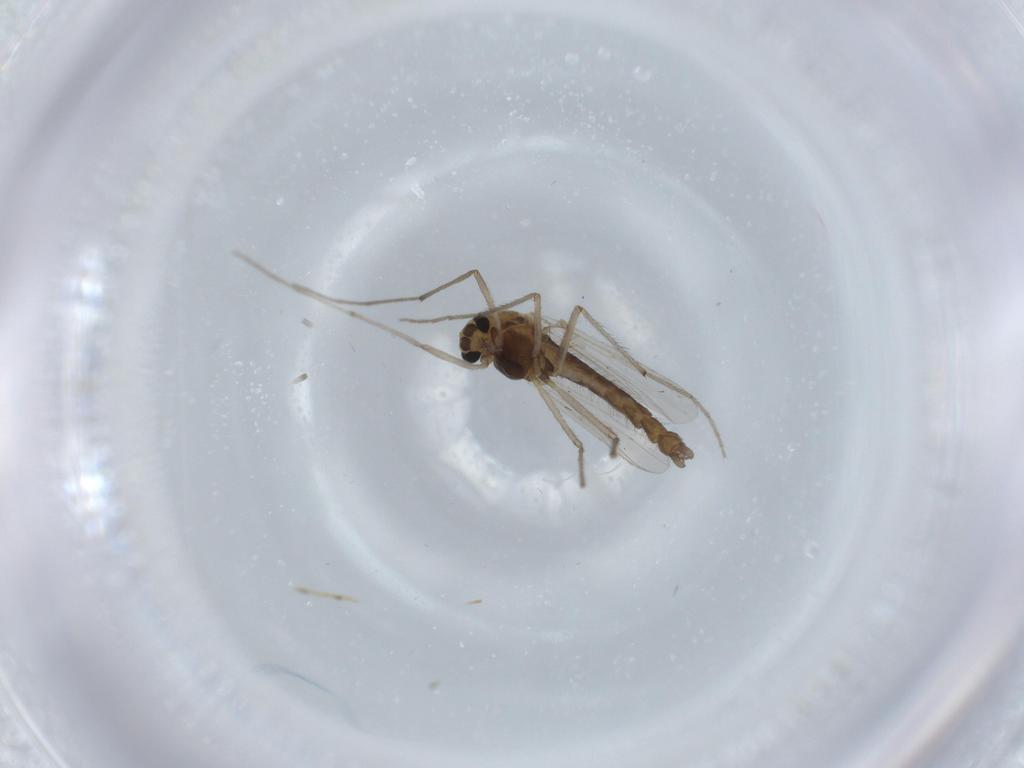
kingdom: Animalia
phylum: Arthropoda
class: Insecta
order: Diptera
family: Chironomidae
